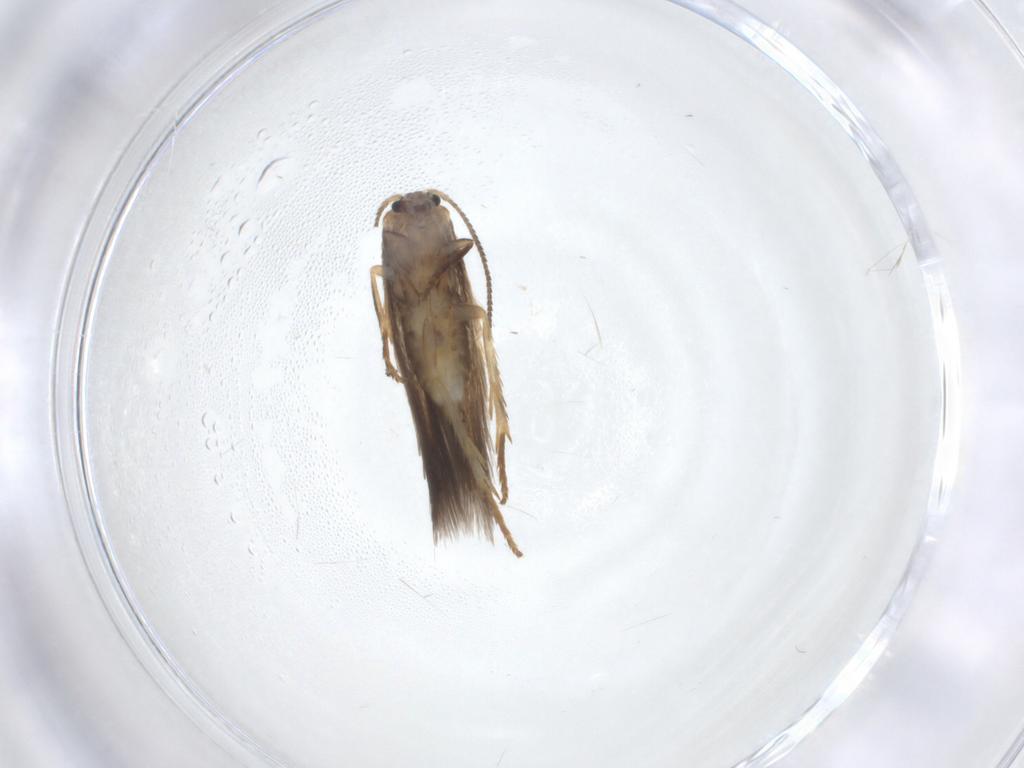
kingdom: Animalia
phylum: Arthropoda
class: Insecta
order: Lepidoptera
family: Nepticulidae
